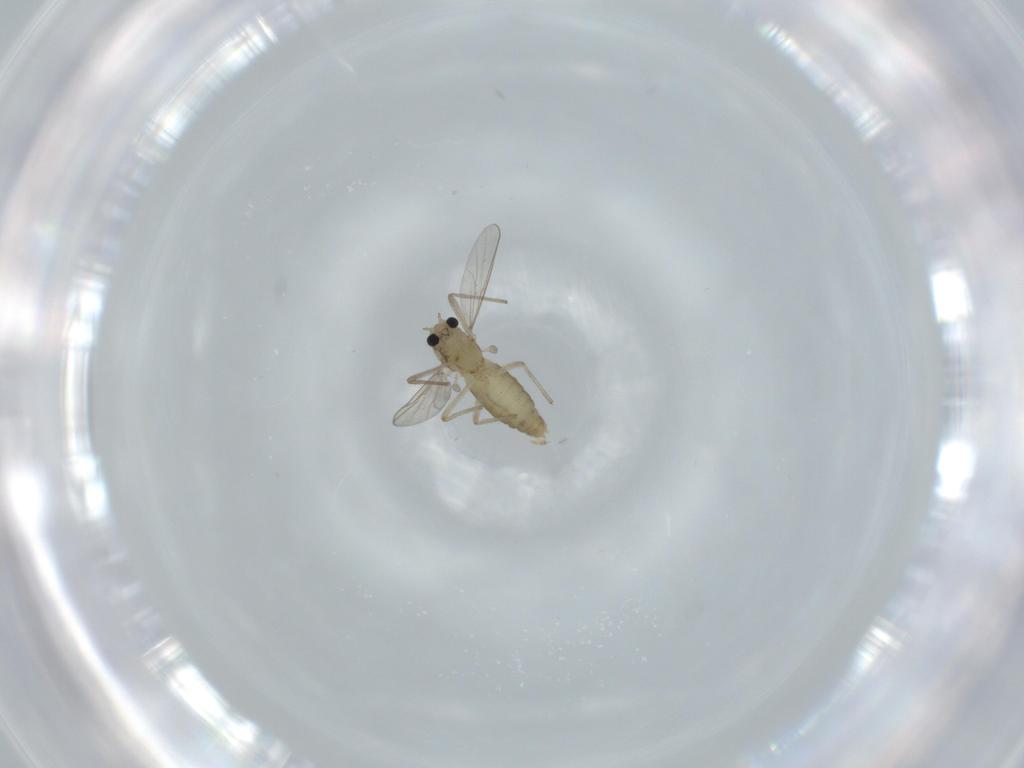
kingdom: Animalia
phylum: Arthropoda
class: Insecta
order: Diptera
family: Chironomidae
